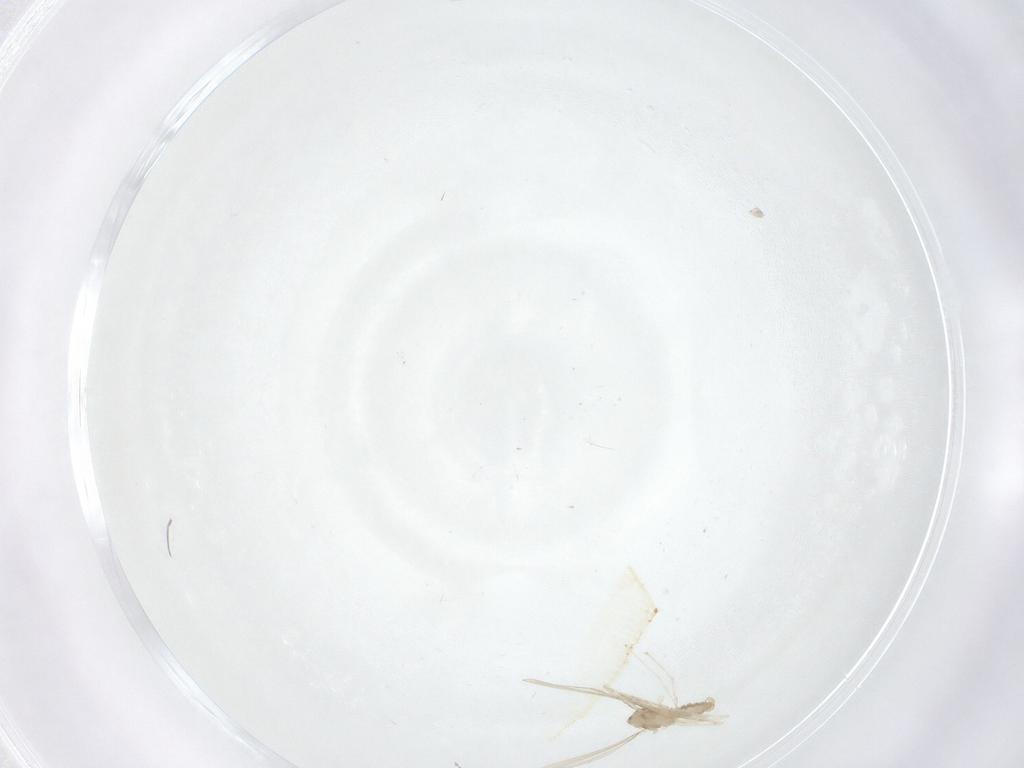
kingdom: Animalia
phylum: Arthropoda
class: Insecta
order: Diptera
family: Cecidomyiidae
